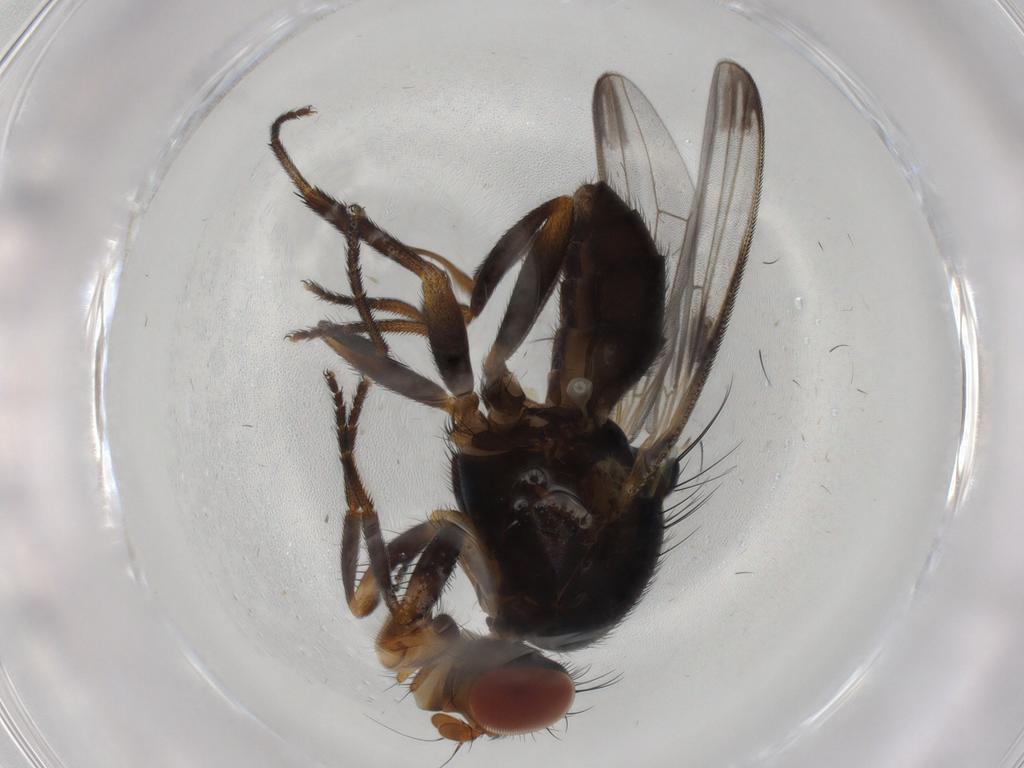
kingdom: Animalia
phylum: Arthropoda
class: Insecta
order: Diptera
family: Ulidiidae
